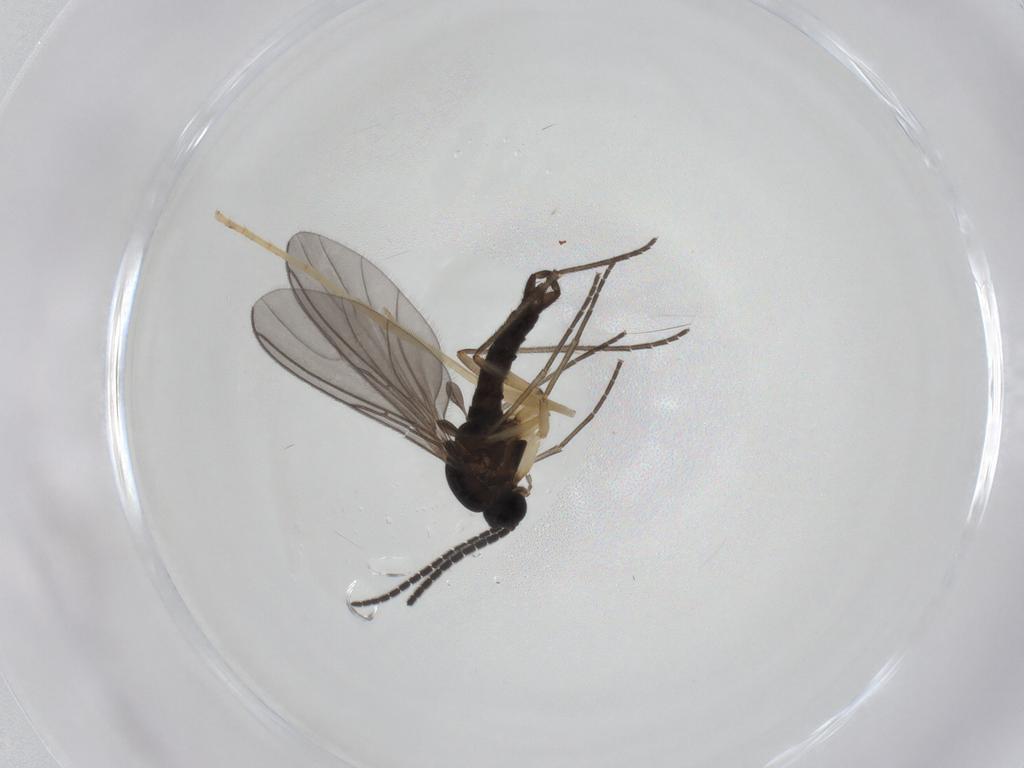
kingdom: Animalia
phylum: Arthropoda
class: Insecta
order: Diptera
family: Sciaridae
